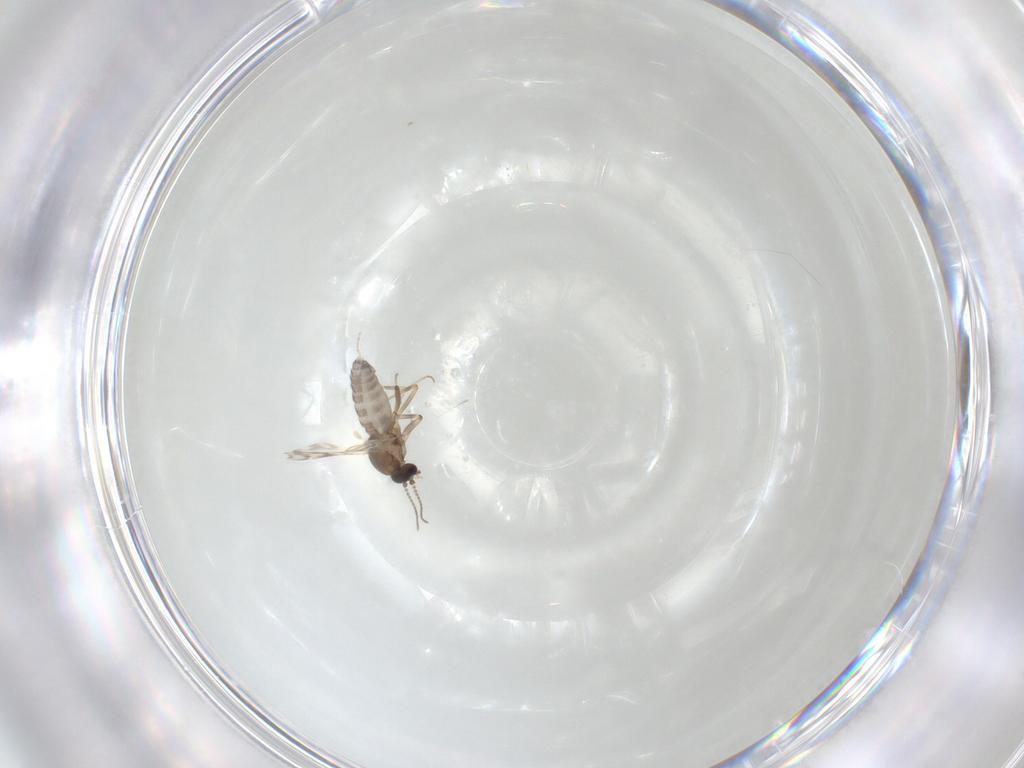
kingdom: Animalia
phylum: Arthropoda
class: Insecta
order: Diptera
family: Ceratopogonidae
